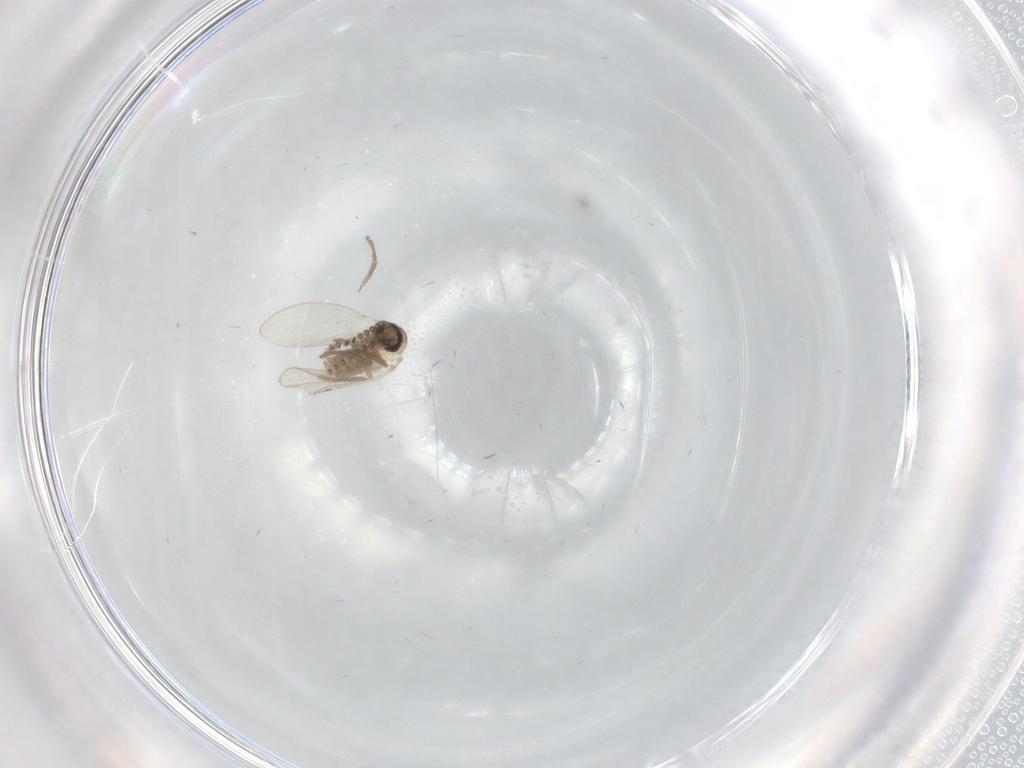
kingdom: Animalia
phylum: Arthropoda
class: Insecta
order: Diptera
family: Psychodidae
